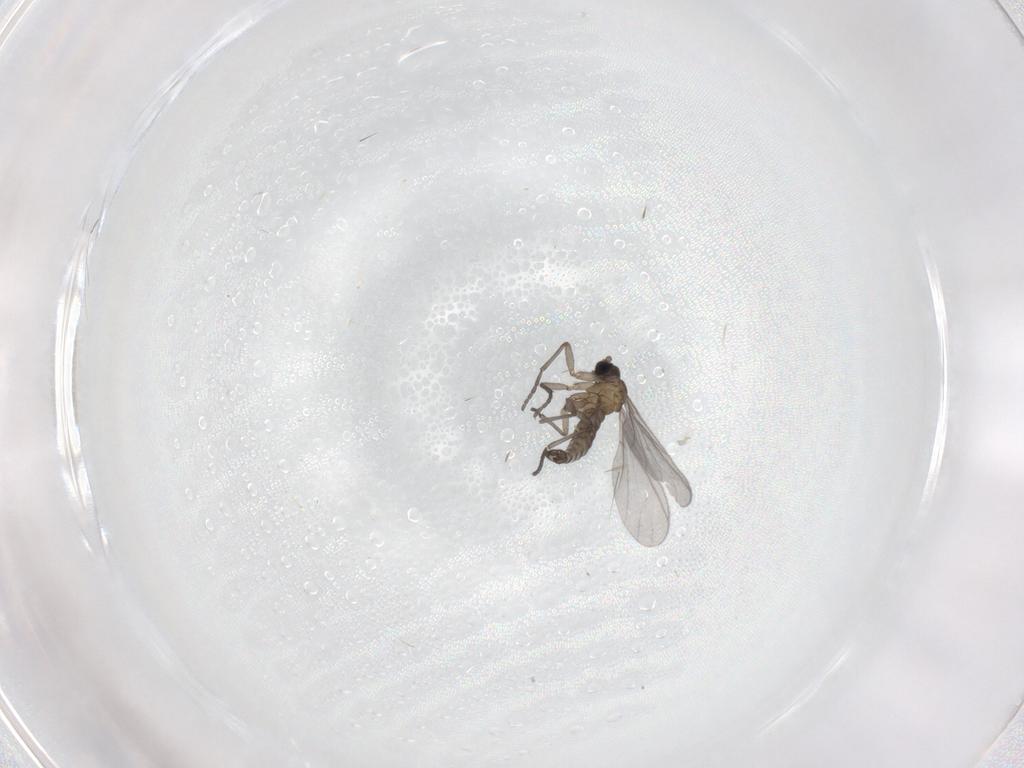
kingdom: Animalia
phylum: Arthropoda
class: Insecta
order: Diptera
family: Sciaridae
